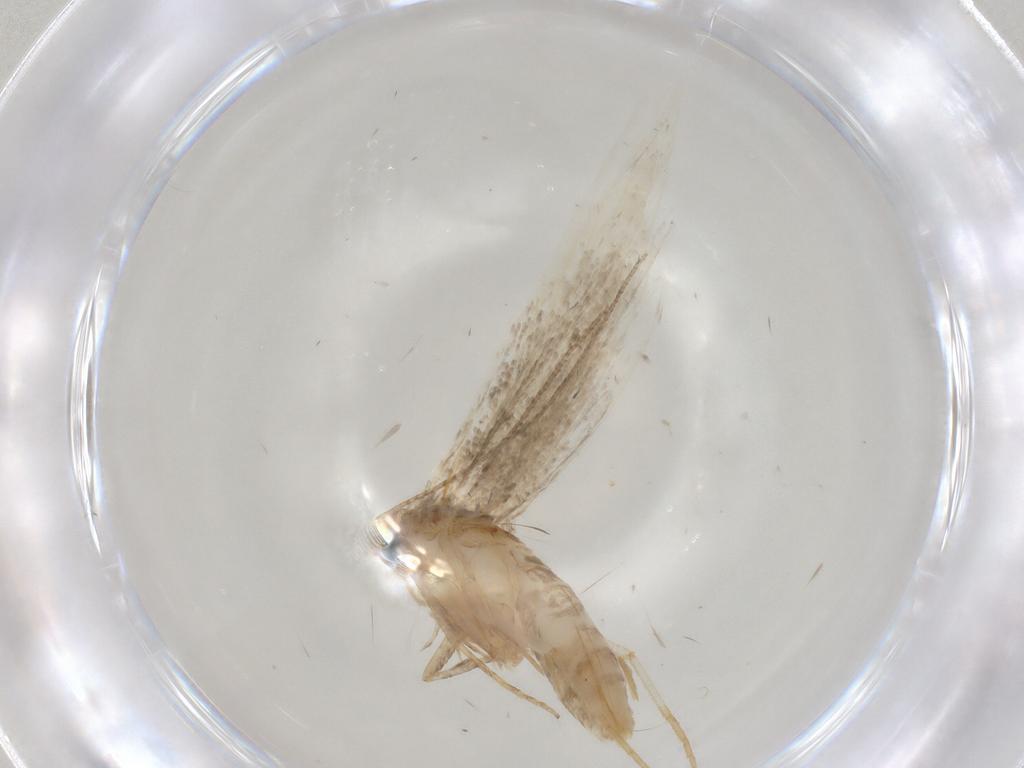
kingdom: Animalia
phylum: Arthropoda
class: Insecta
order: Lepidoptera
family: Gelechiidae
